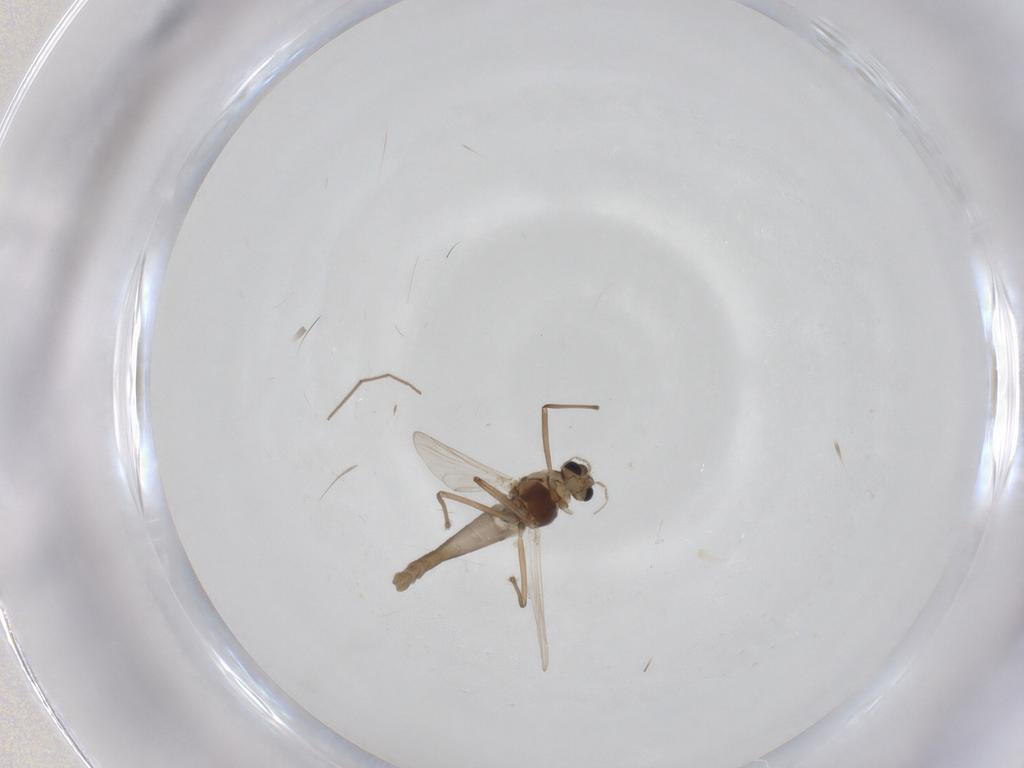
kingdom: Animalia
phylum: Arthropoda
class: Insecta
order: Diptera
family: Chironomidae
